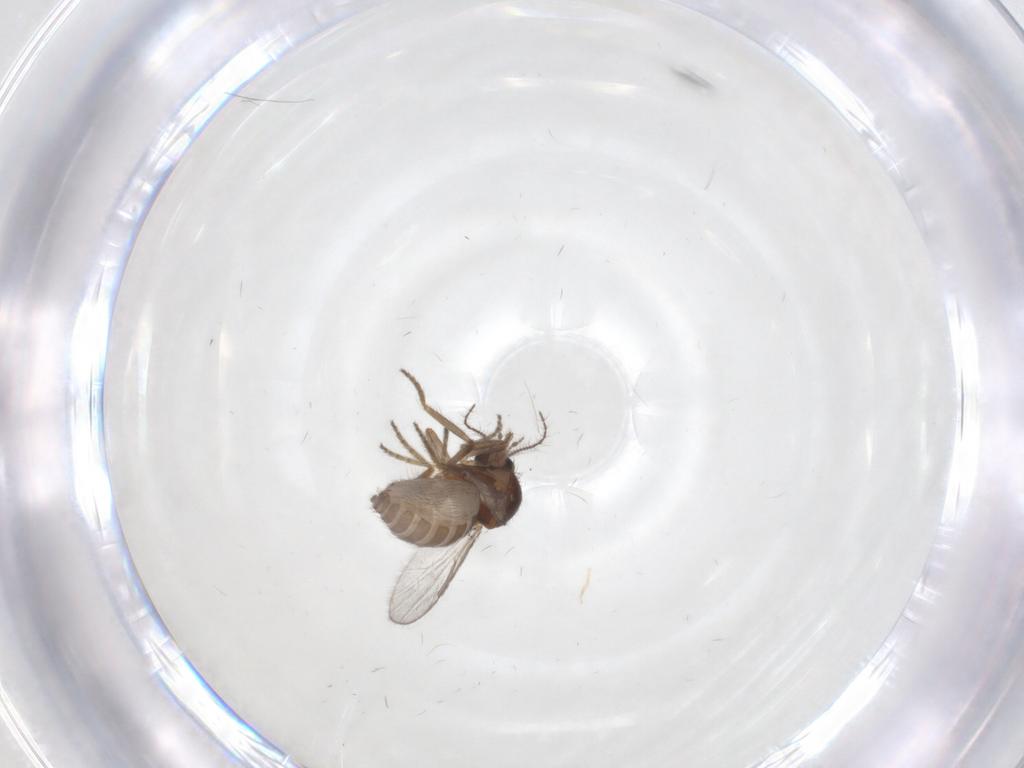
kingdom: Animalia
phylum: Arthropoda
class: Insecta
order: Diptera
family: Ceratopogonidae
